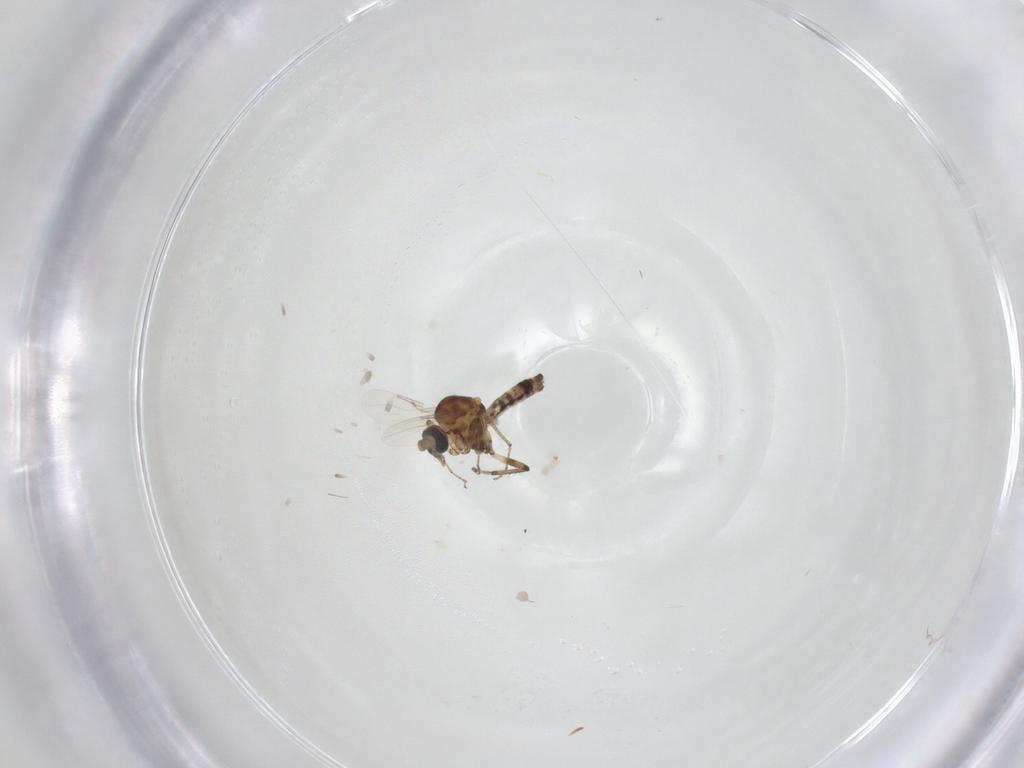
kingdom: Animalia
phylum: Arthropoda
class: Insecta
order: Diptera
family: Ceratopogonidae
